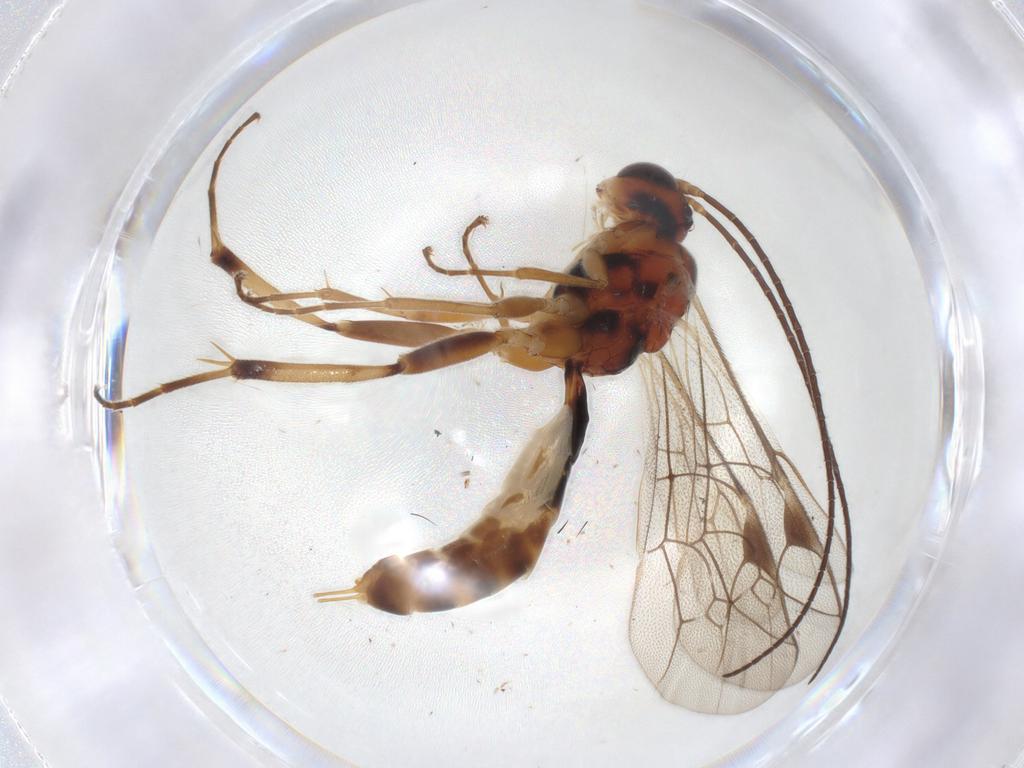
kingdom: Animalia
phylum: Arthropoda
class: Insecta
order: Hymenoptera
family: Ichneumonidae
